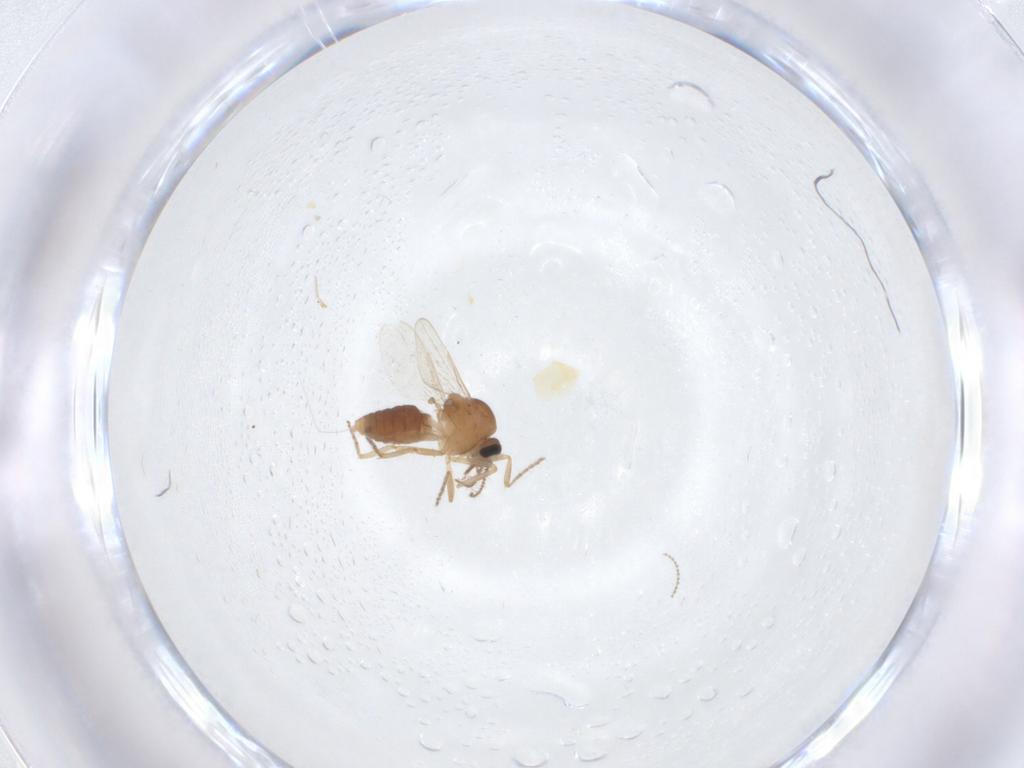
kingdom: Animalia
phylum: Arthropoda
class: Insecta
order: Diptera
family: Ceratopogonidae
